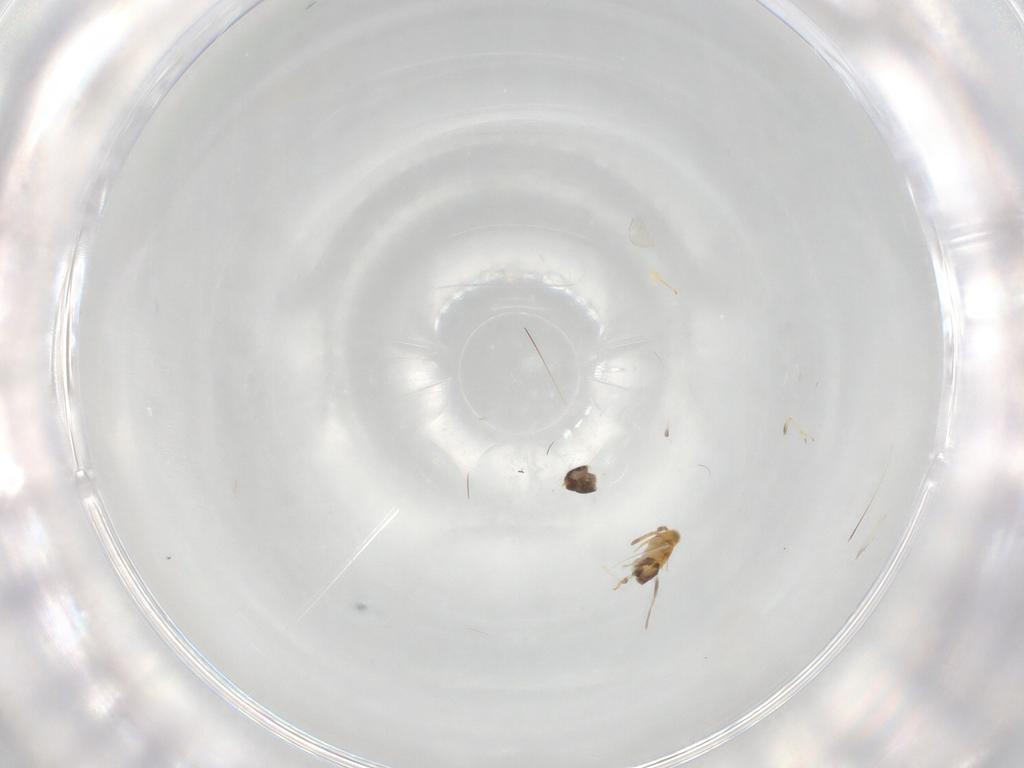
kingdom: Animalia
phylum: Arthropoda
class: Insecta
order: Hymenoptera
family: Aphelinidae
